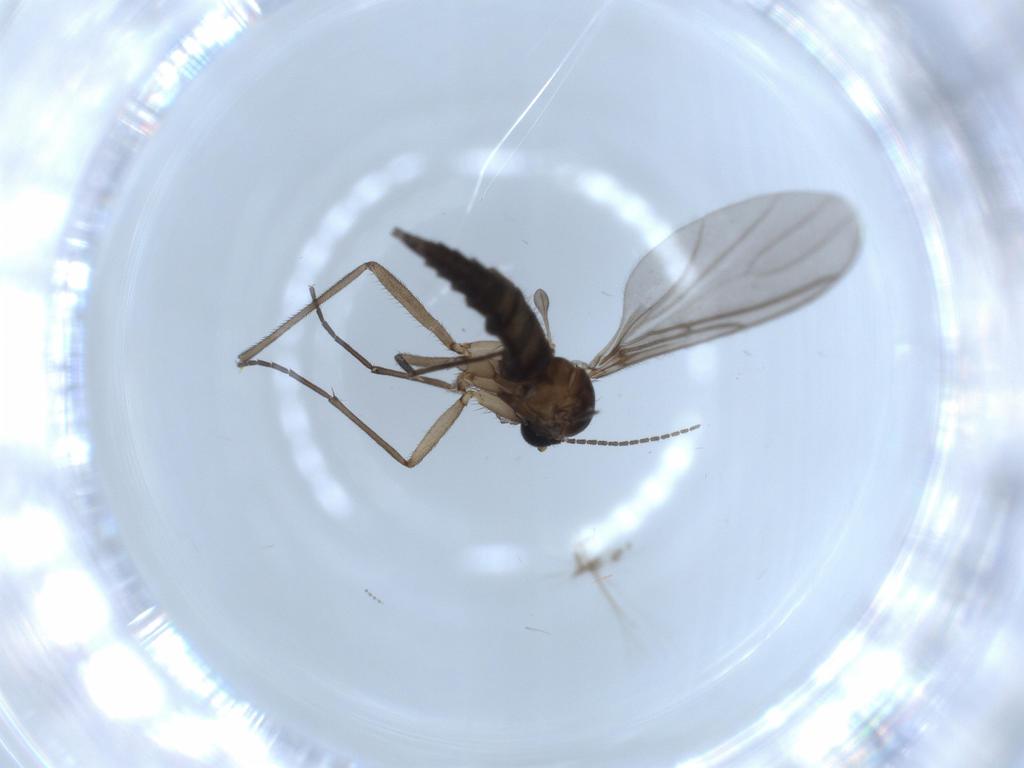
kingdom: Animalia
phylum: Arthropoda
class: Insecta
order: Diptera
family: Sciaridae
